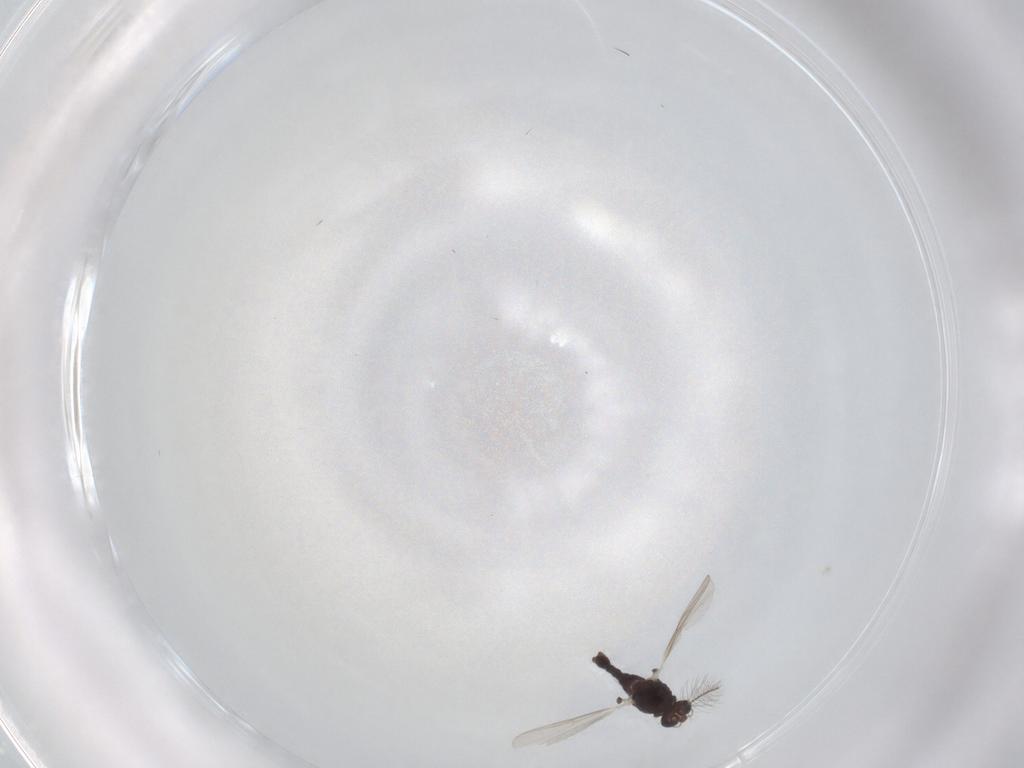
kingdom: Animalia
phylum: Arthropoda
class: Insecta
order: Diptera
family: Chironomidae
